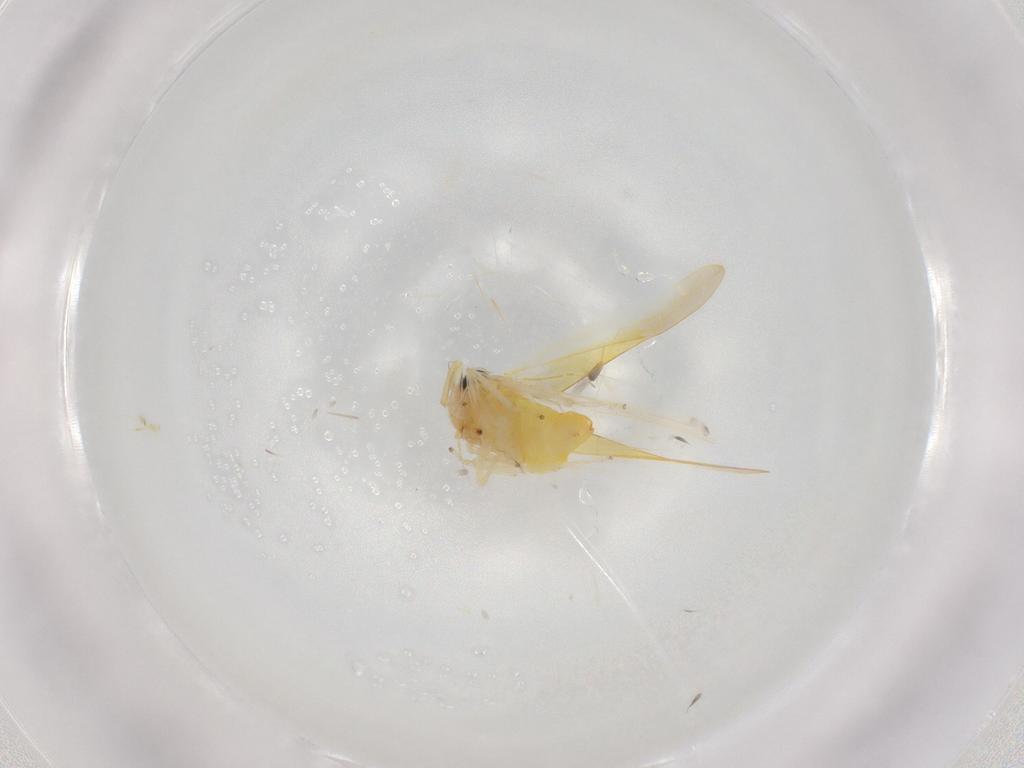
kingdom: Animalia
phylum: Arthropoda
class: Insecta
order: Hemiptera
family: Cicadellidae
